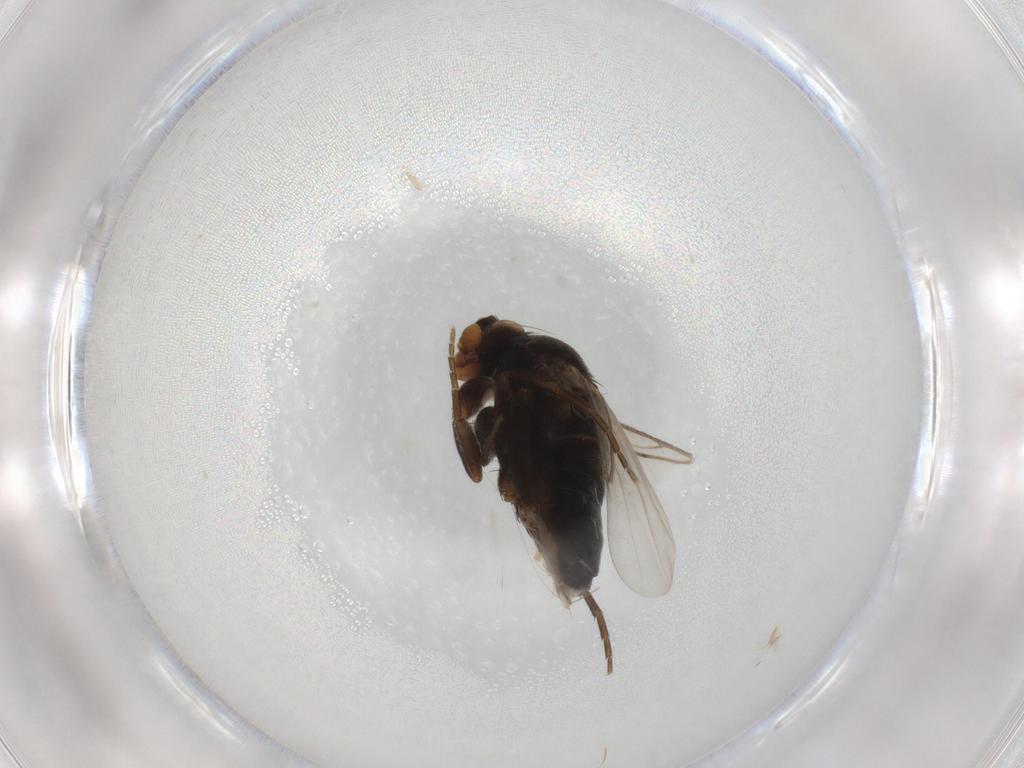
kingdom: Animalia
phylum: Arthropoda
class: Insecta
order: Diptera
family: Phoridae
